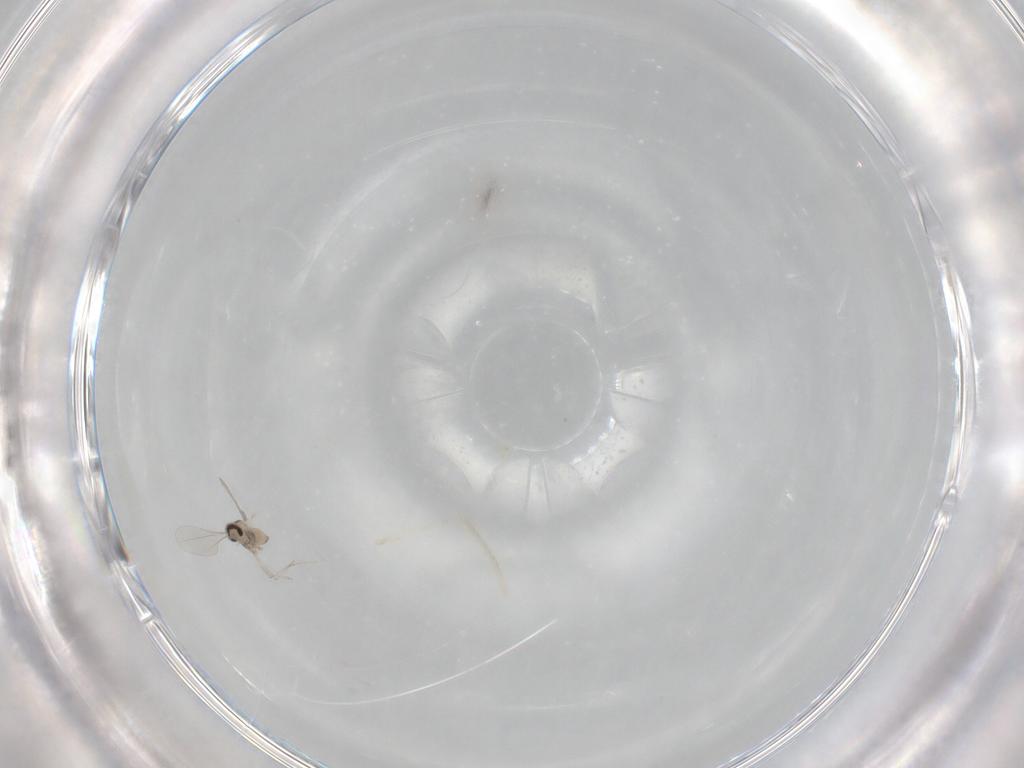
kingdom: Animalia
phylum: Arthropoda
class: Insecta
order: Diptera
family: Cecidomyiidae
